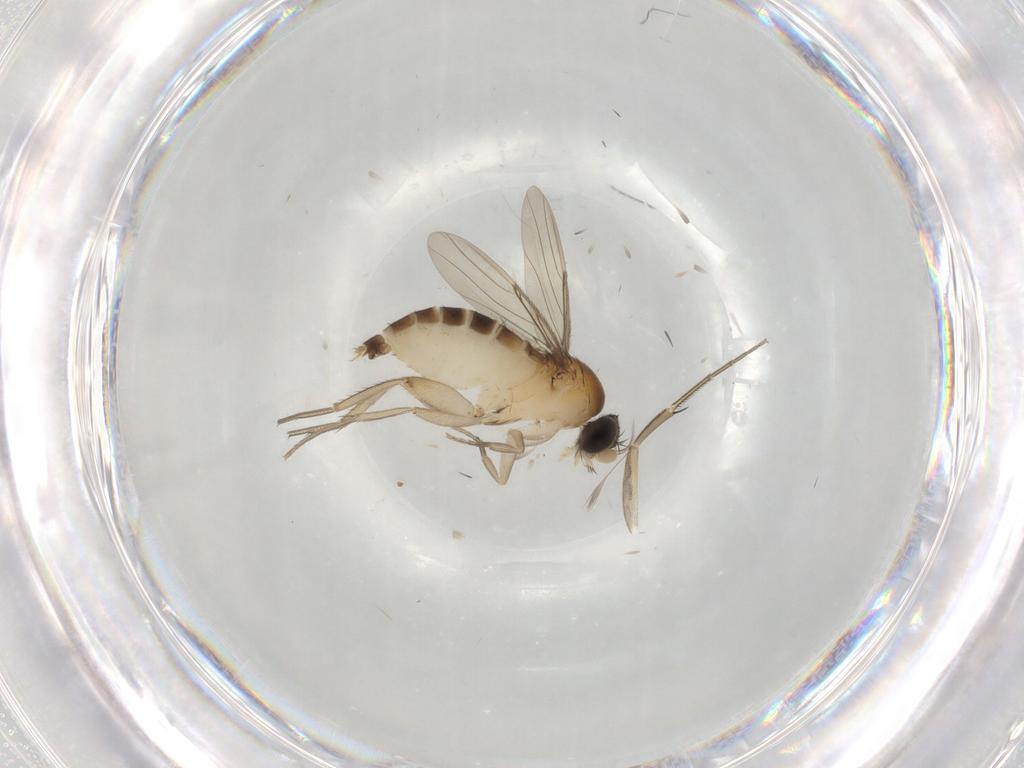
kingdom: Animalia
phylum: Arthropoda
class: Insecta
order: Diptera
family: Phoridae
